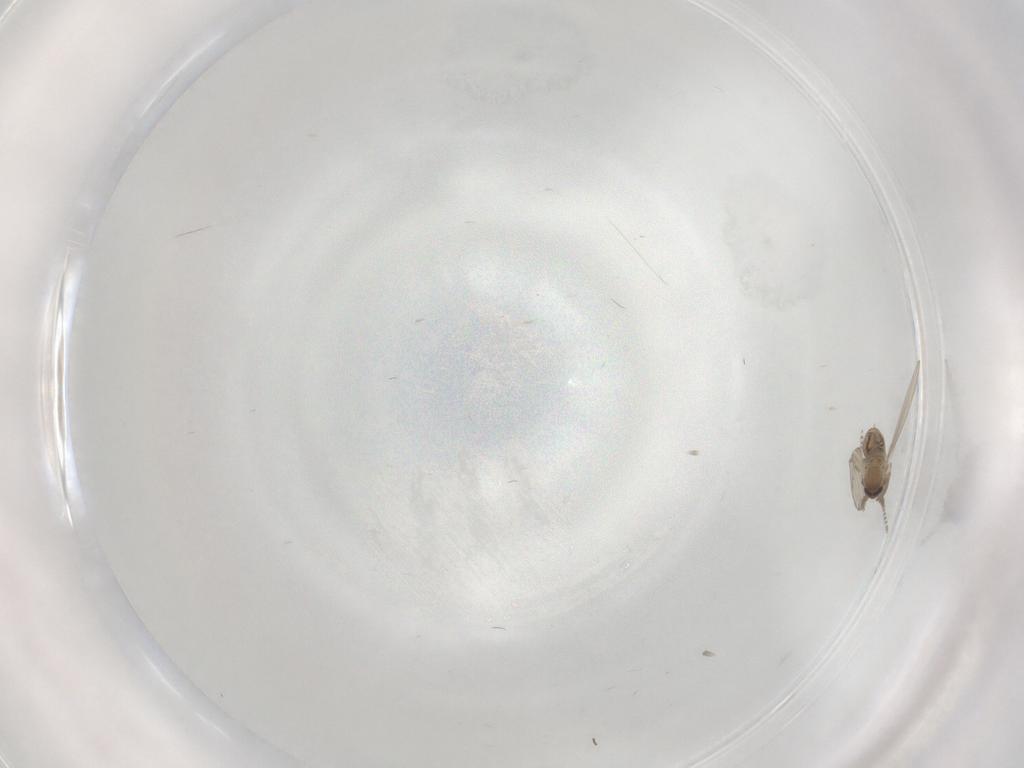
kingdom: Animalia
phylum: Arthropoda
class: Insecta
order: Diptera
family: Psychodidae
